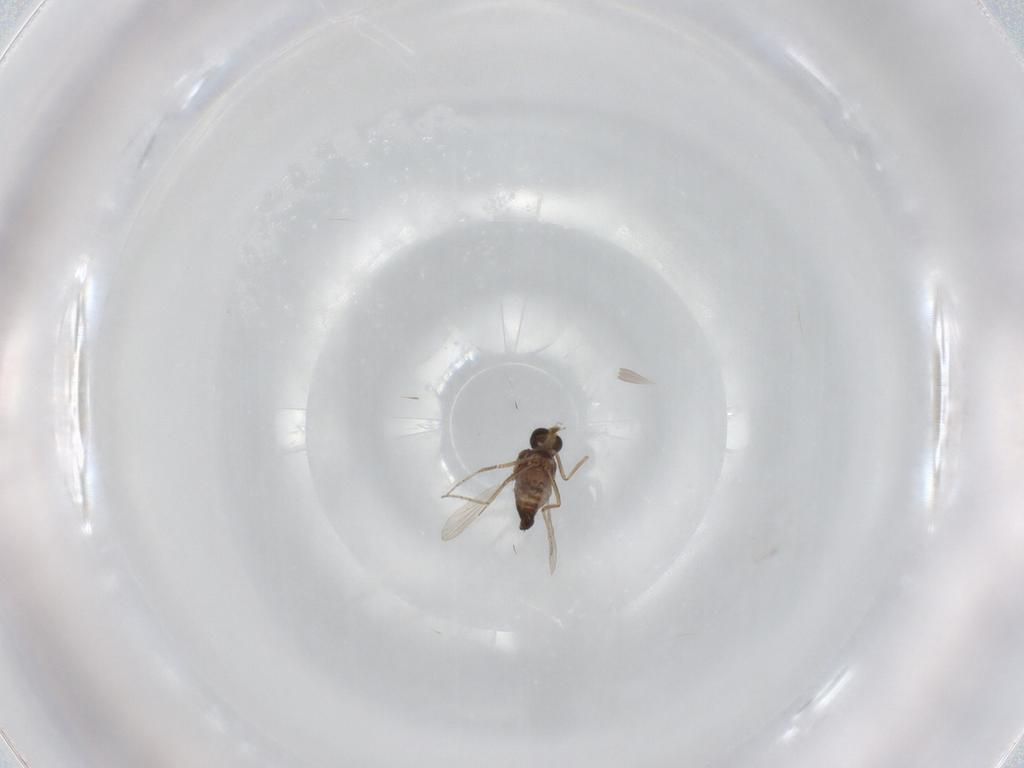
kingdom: Animalia
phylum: Arthropoda
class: Insecta
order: Diptera
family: Ceratopogonidae
